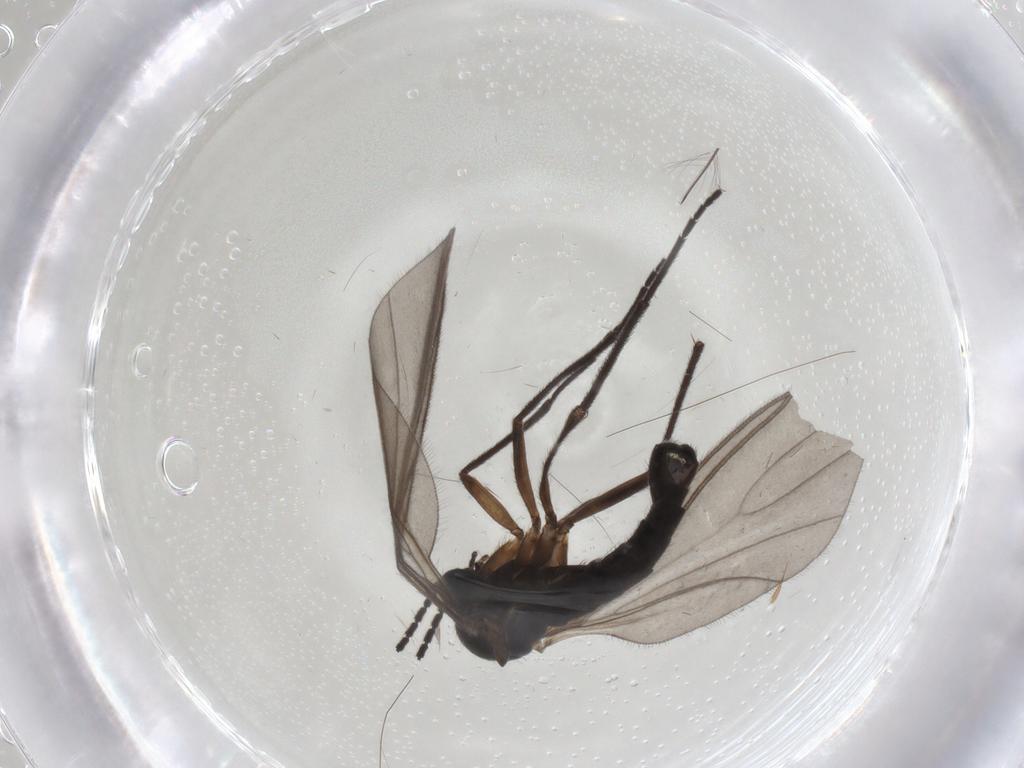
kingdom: Animalia
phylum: Arthropoda
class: Insecta
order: Diptera
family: Sciaridae
